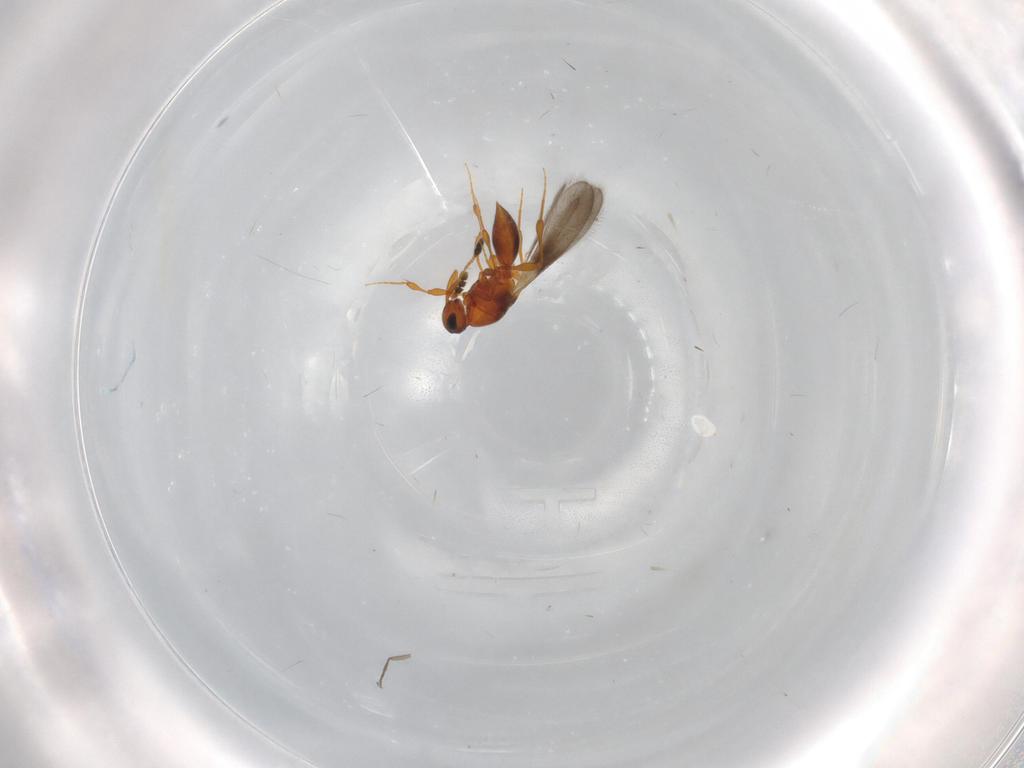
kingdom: Animalia
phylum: Arthropoda
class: Insecta
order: Hymenoptera
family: Platygastridae
